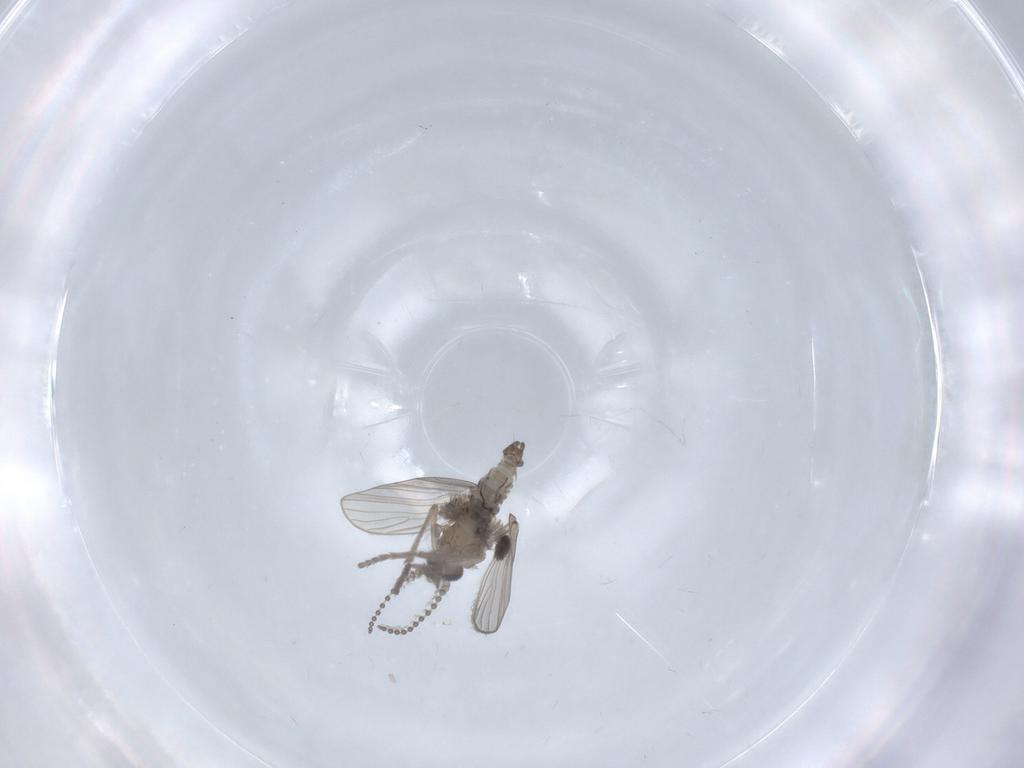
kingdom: Animalia
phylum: Arthropoda
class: Insecta
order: Diptera
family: Psychodidae
